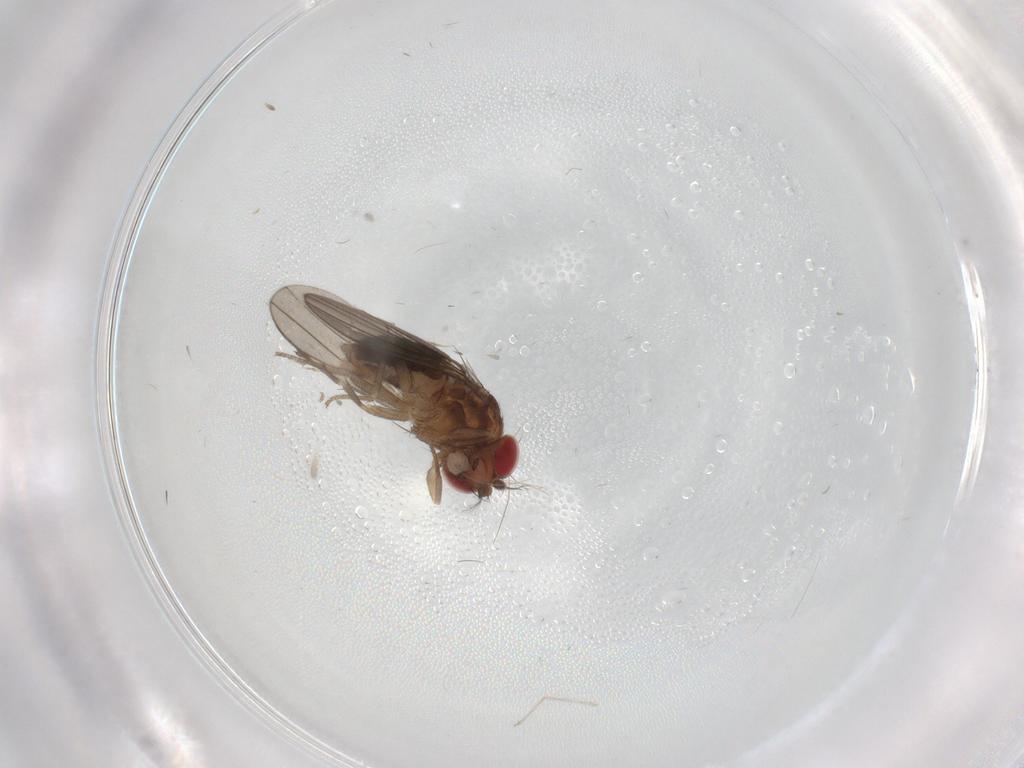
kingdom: Animalia
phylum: Arthropoda
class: Insecta
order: Diptera
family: Drosophilidae
